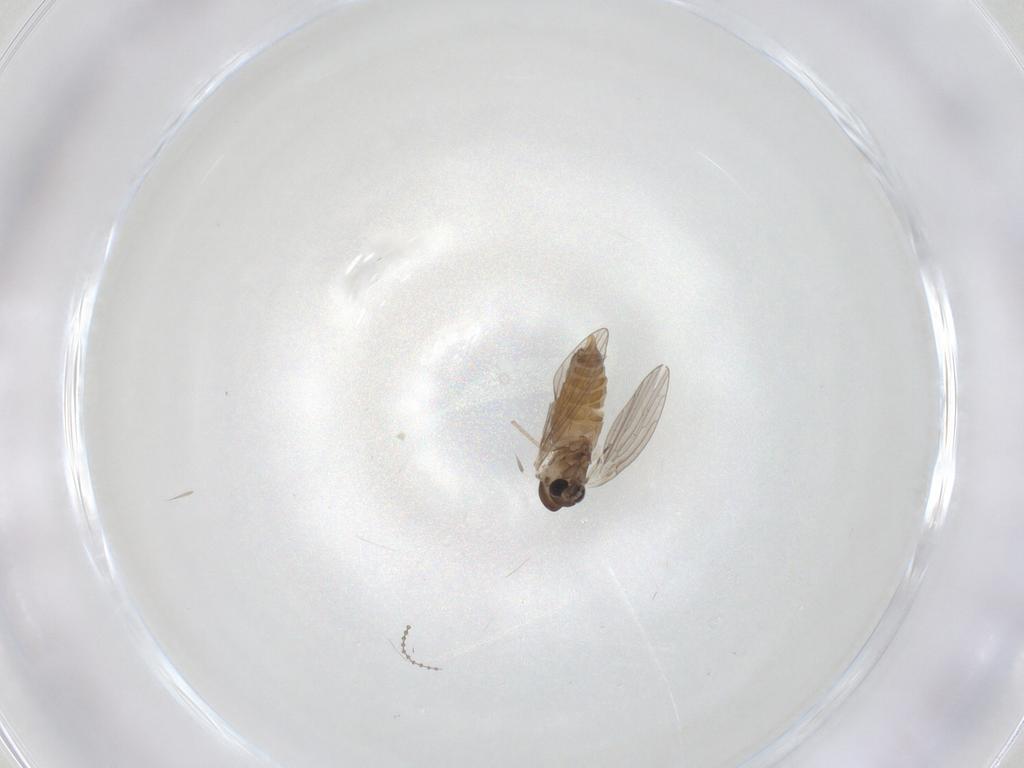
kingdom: Animalia
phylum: Arthropoda
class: Insecta
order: Diptera
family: Psychodidae
